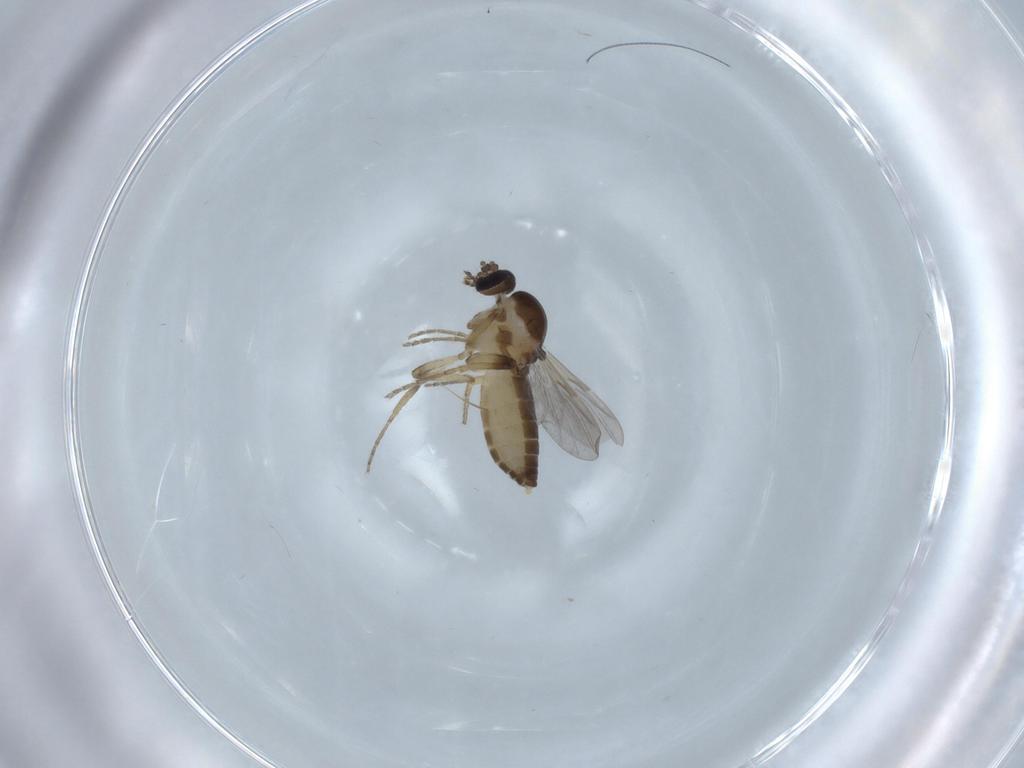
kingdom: Animalia
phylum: Arthropoda
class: Insecta
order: Diptera
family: Ceratopogonidae
